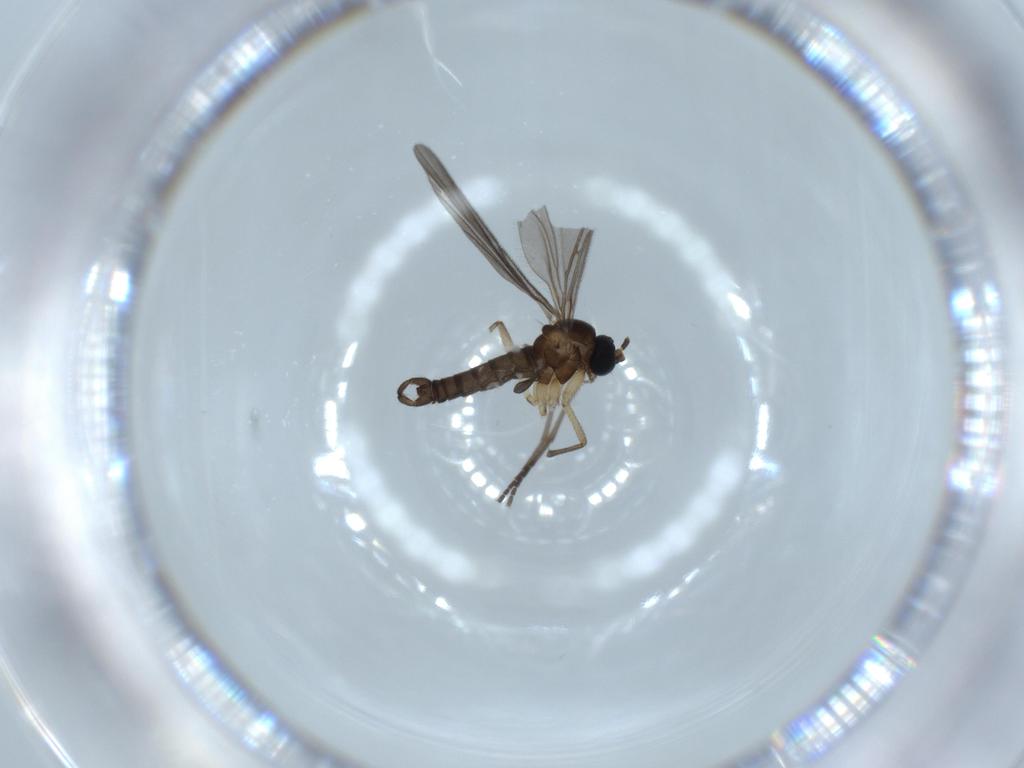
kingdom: Animalia
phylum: Arthropoda
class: Insecta
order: Diptera
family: Sciaridae
